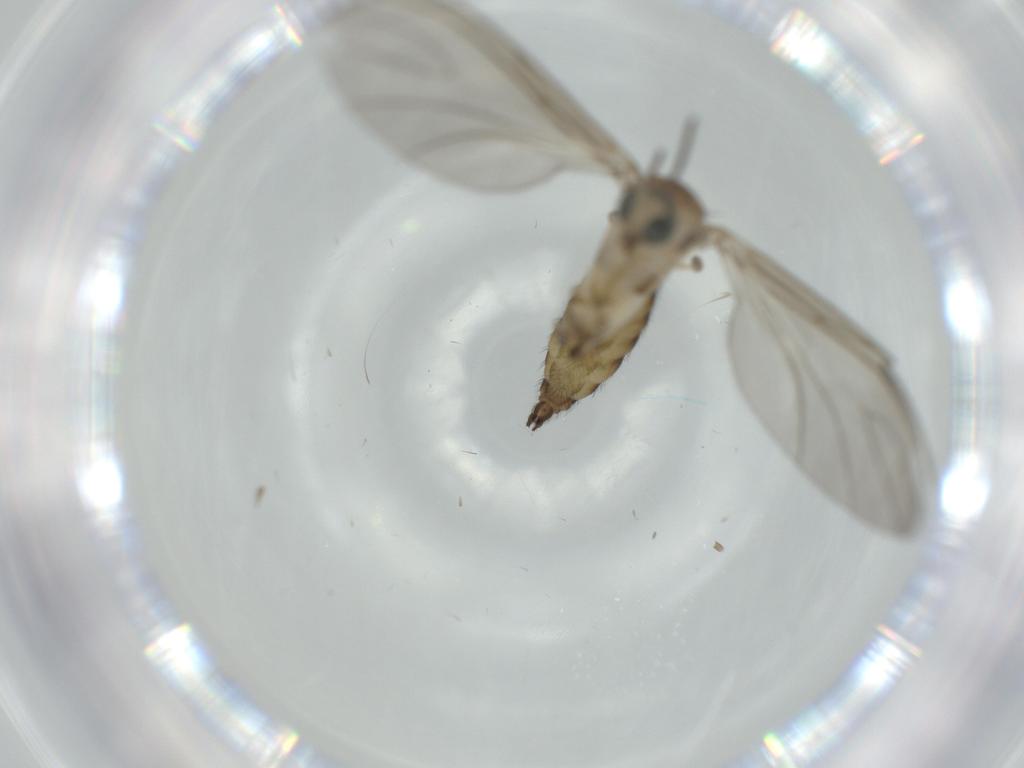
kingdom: Animalia
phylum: Arthropoda
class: Insecta
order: Diptera
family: Sciaridae
